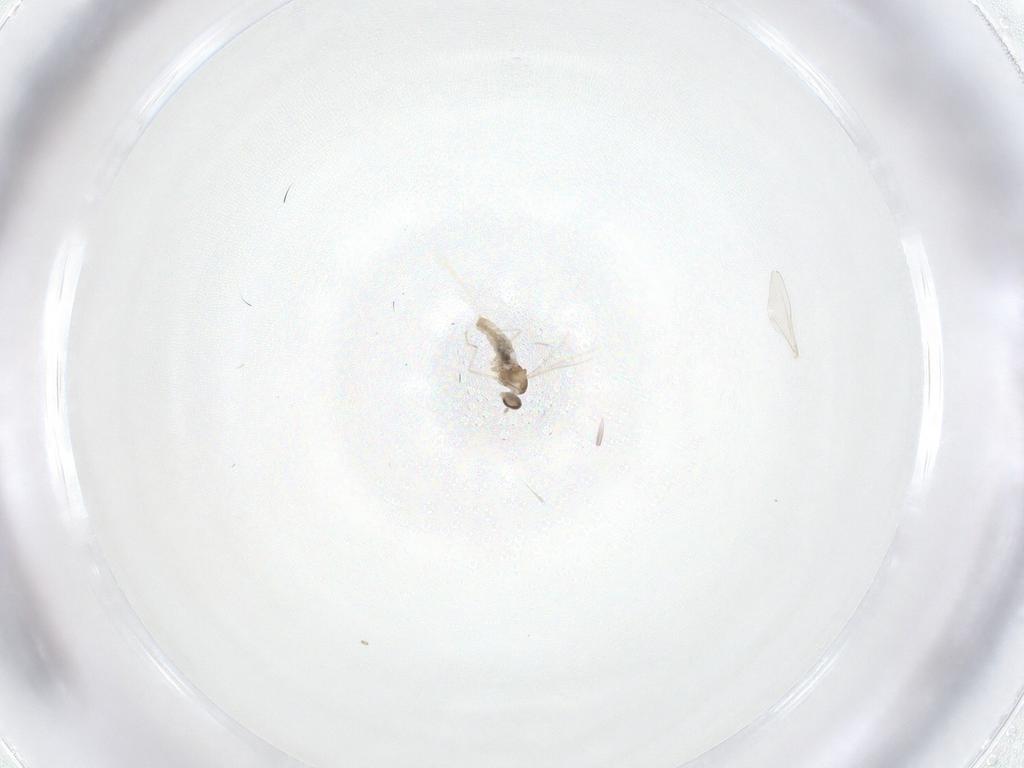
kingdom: Animalia
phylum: Arthropoda
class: Insecta
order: Diptera
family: Cecidomyiidae
